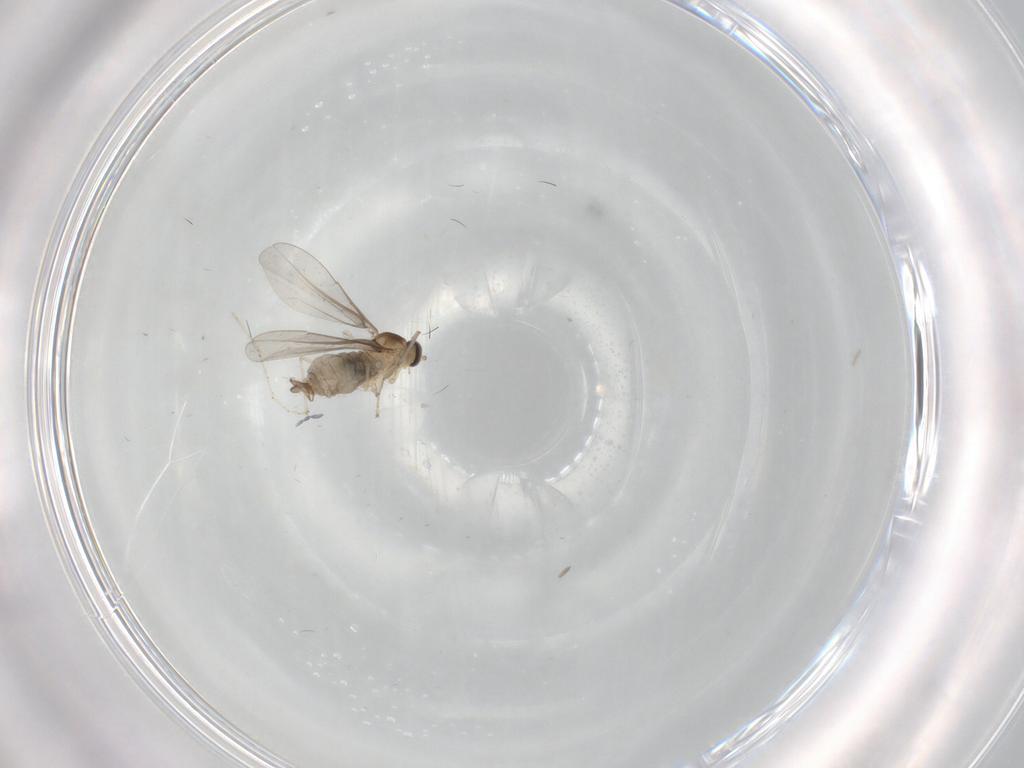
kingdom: Animalia
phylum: Arthropoda
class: Insecta
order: Diptera
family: Cecidomyiidae
